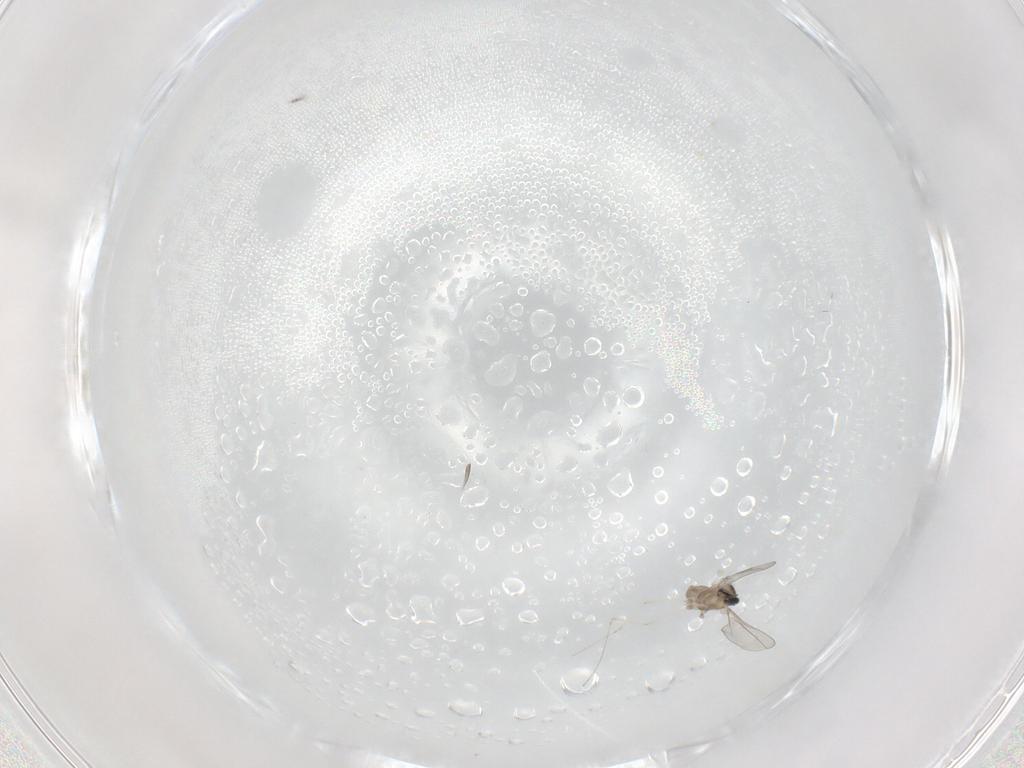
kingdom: Animalia
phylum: Arthropoda
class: Insecta
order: Diptera
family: Cecidomyiidae
